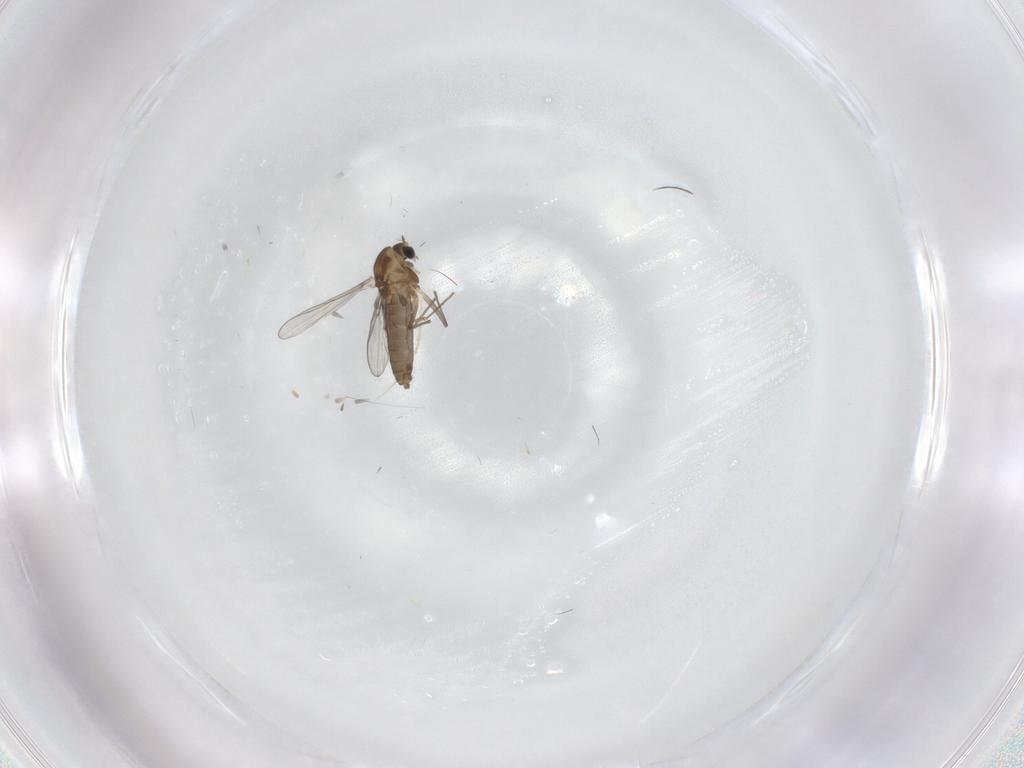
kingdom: Animalia
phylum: Arthropoda
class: Insecta
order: Diptera
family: Chironomidae
